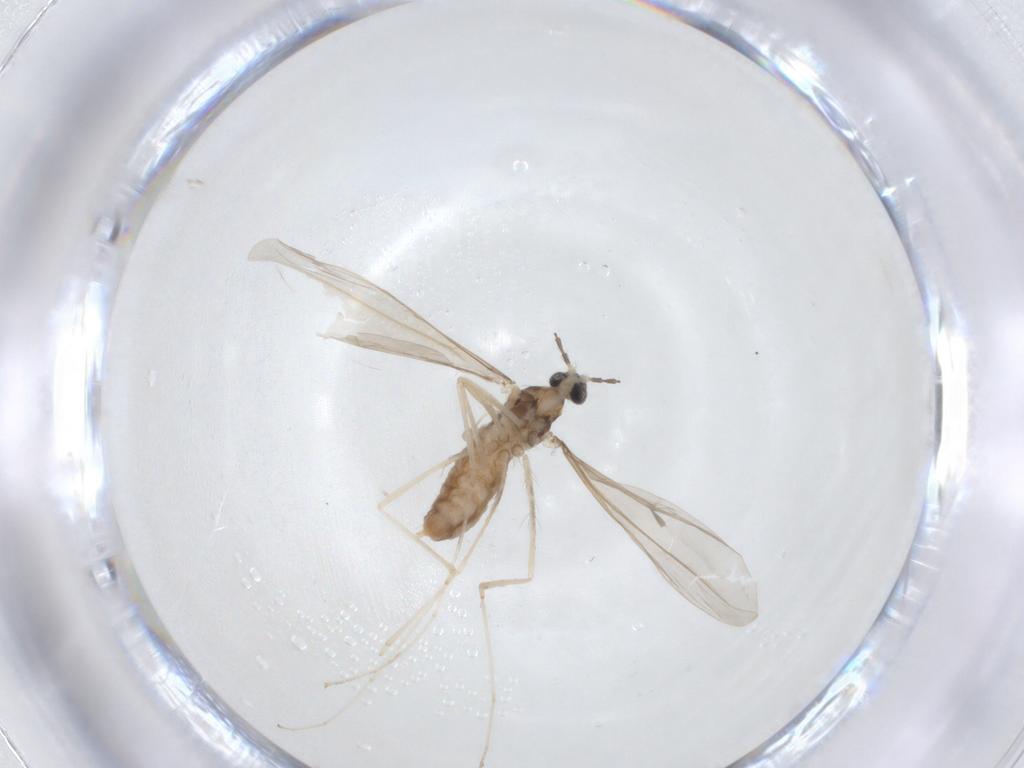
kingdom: Animalia
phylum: Arthropoda
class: Insecta
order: Diptera
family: Cecidomyiidae
